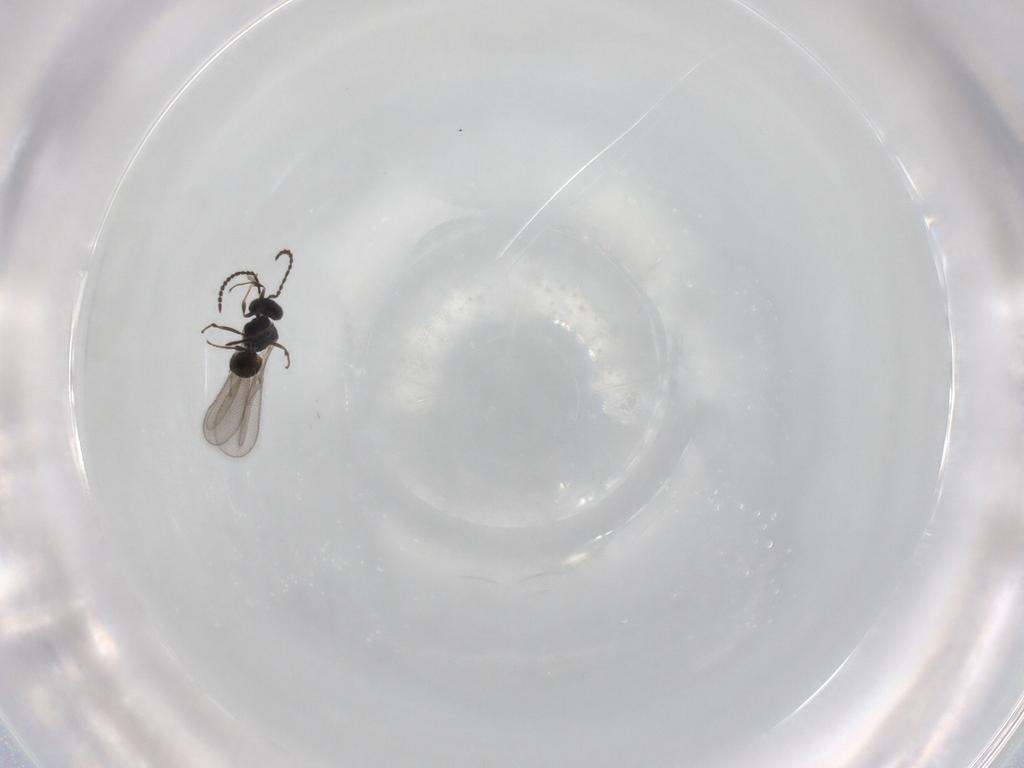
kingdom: Animalia
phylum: Arthropoda
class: Insecta
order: Hymenoptera
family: Scelionidae
